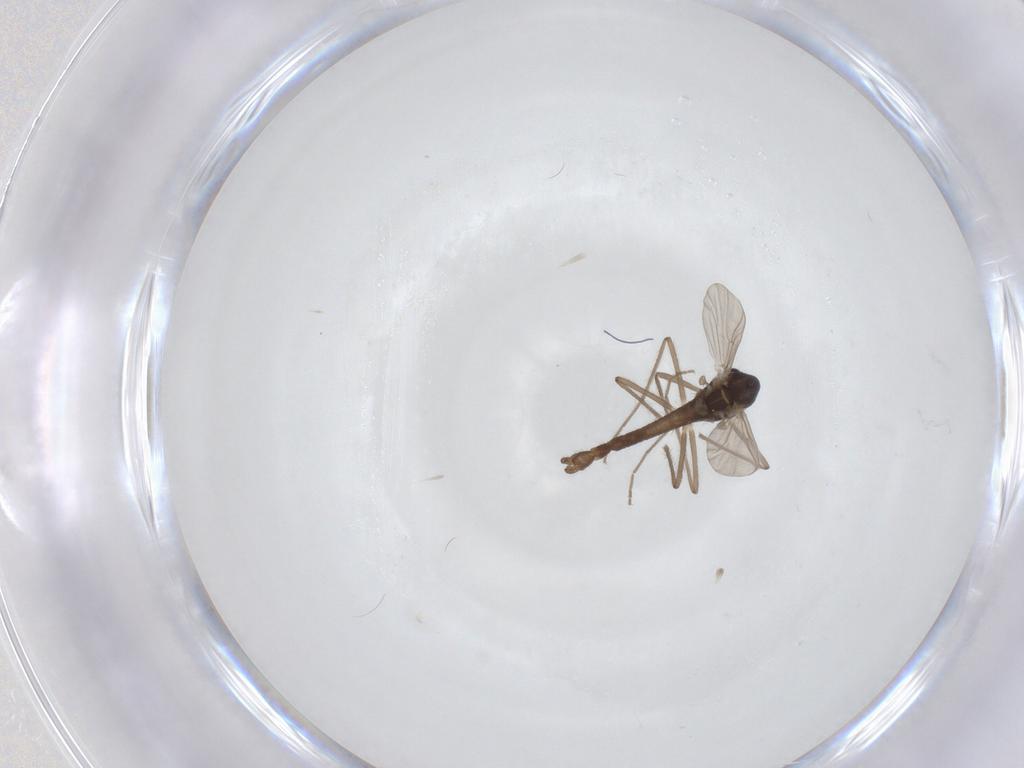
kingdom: Animalia
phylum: Arthropoda
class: Insecta
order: Diptera
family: Chironomidae
